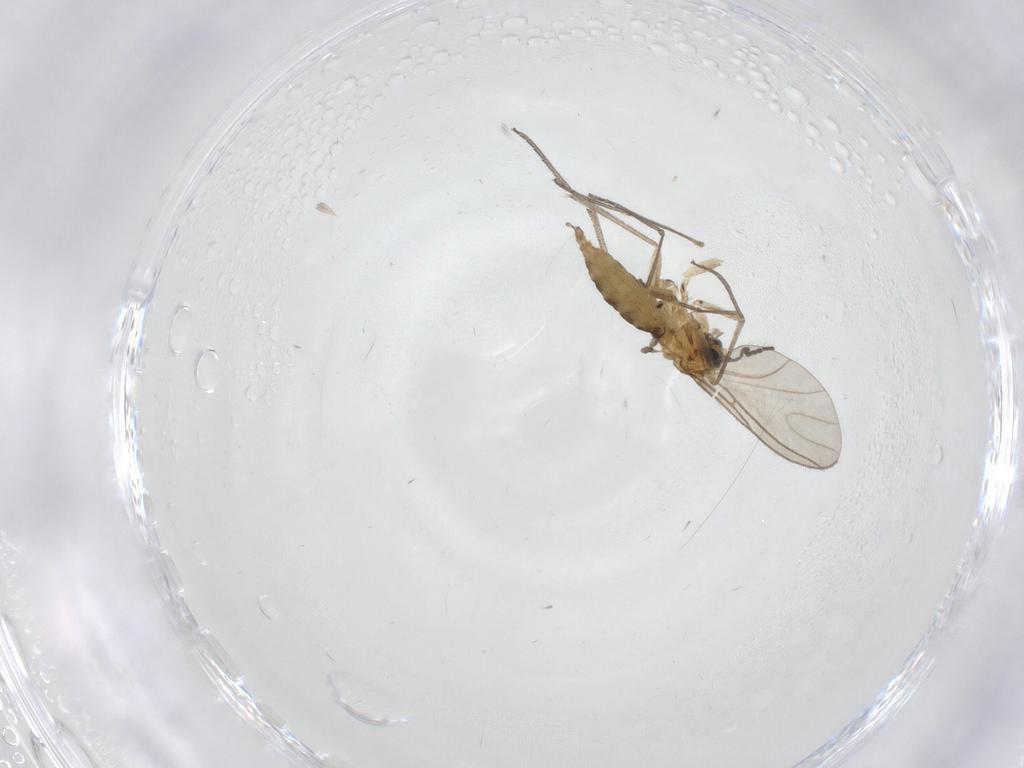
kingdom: Animalia
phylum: Arthropoda
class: Insecta
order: Diptera
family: Sciaridae
